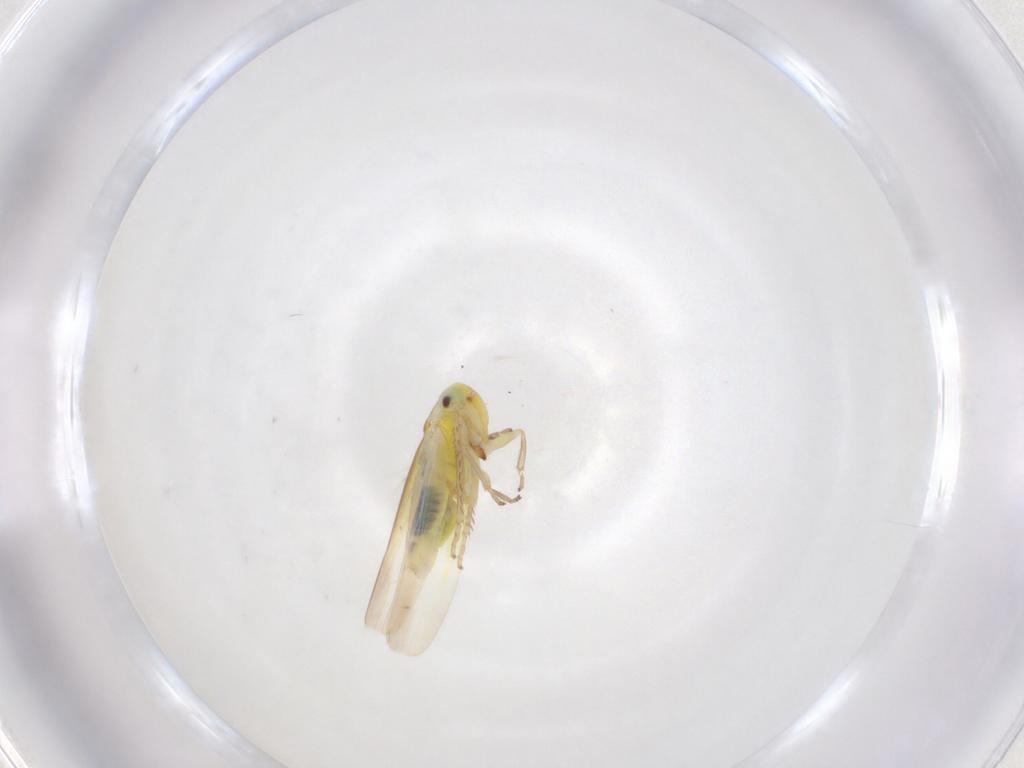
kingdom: Animalia
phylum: Arthropoda
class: Insecta
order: Hemiptera
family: Cicadellidae
